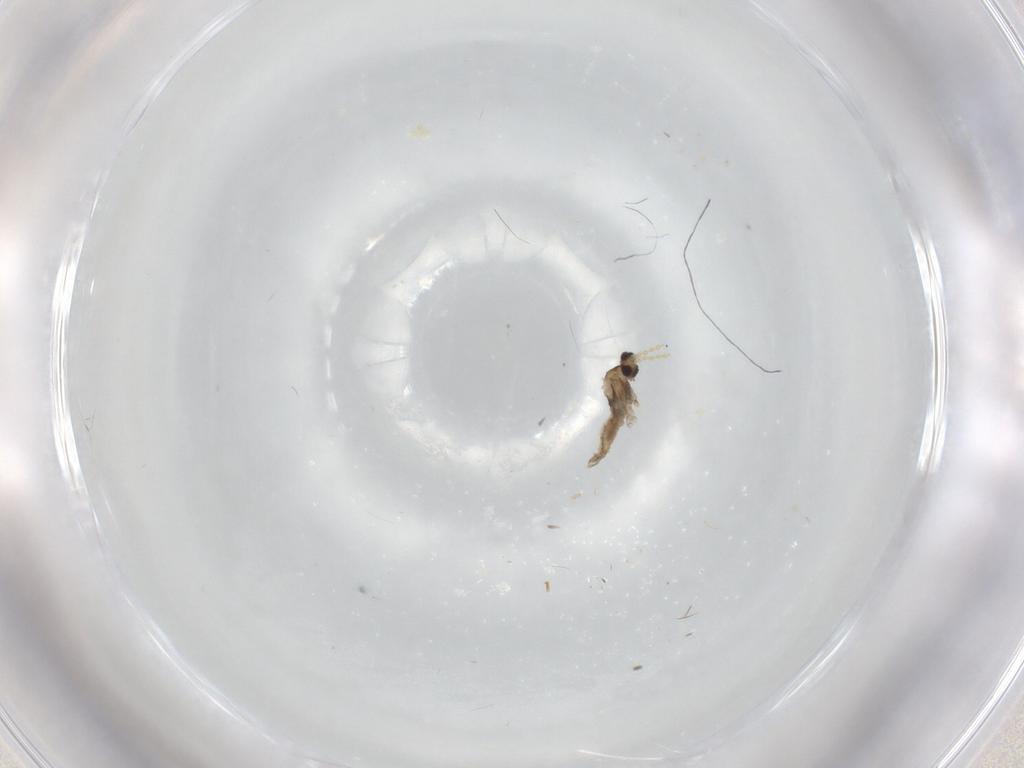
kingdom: Animalia
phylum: Arthropoda
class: Insecta
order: Diptera
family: Cecidomyiidae
